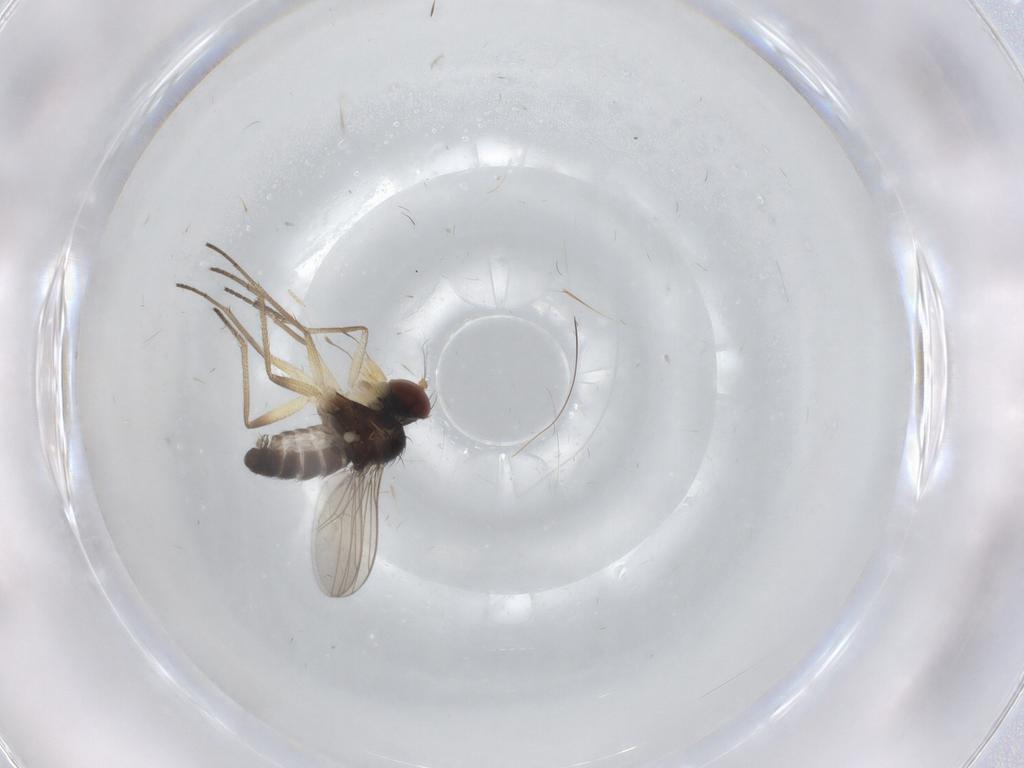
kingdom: Animalia
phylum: Arthropoda
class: Insecta
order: Diptera
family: Dolichopodidae
